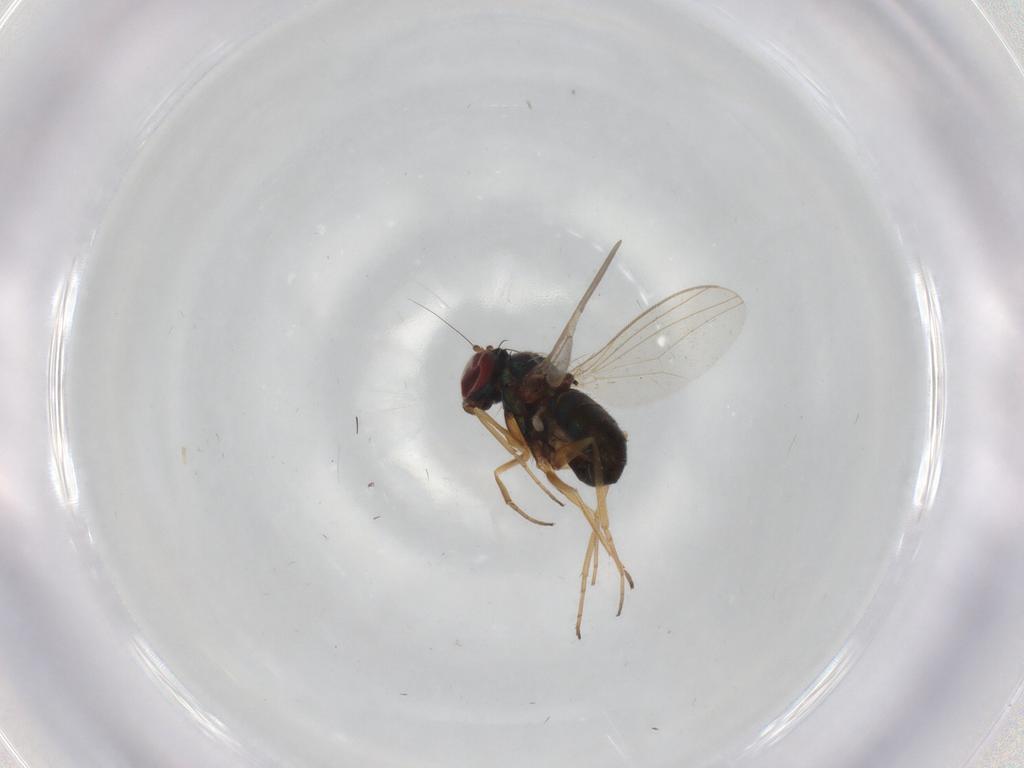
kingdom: Animalia
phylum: Arthropoda
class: Insecta
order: Diptera
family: Dolichopodidae
